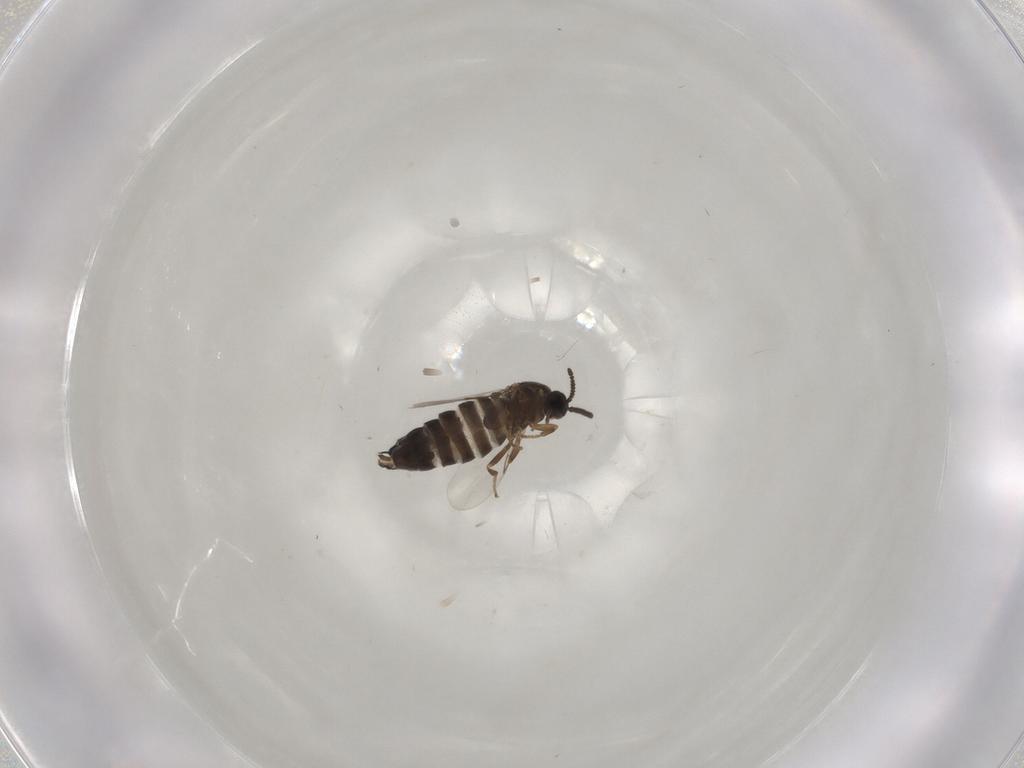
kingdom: Animalia
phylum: Arthropoda
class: Insecta
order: Diptera
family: Scatopsidae
